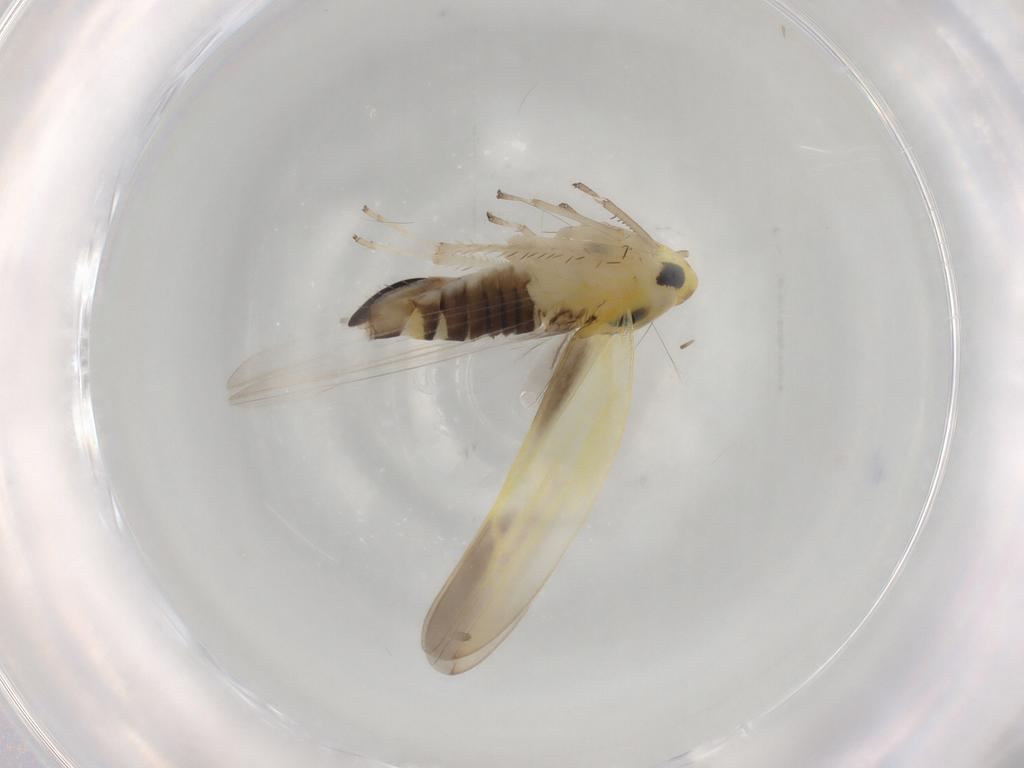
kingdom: Animalia
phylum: Arthropoda
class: Insecta
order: Hemiptera
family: Cicadellidae
